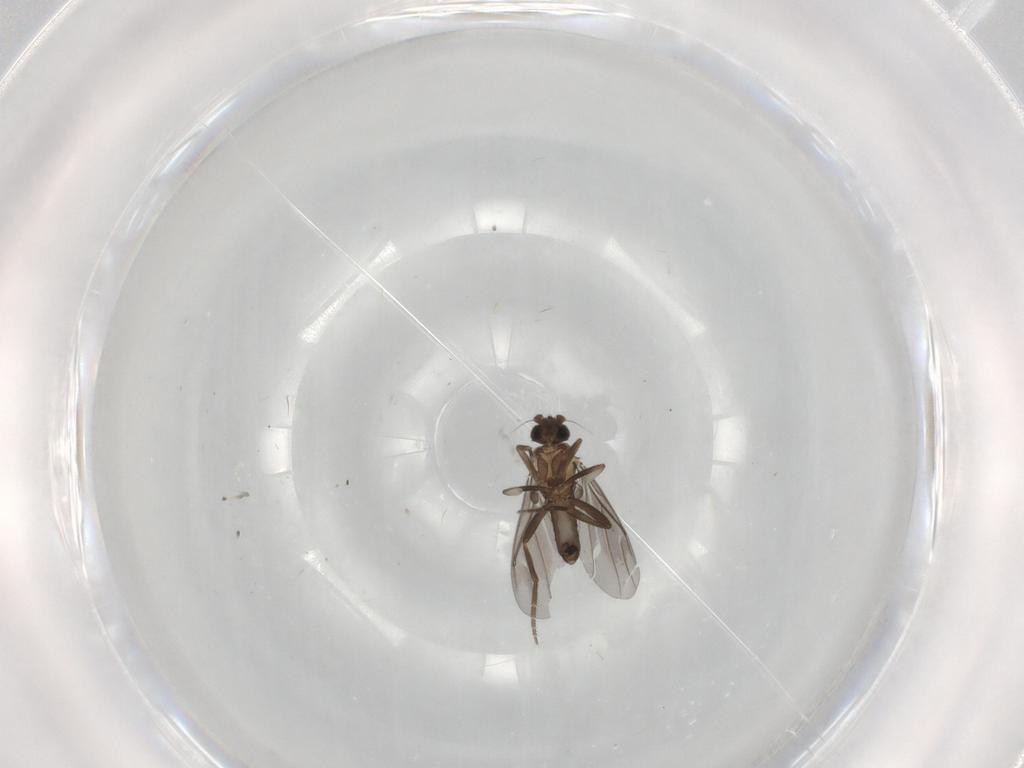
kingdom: Animalia
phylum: Arthropoda
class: Insecta
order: Diptera
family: Phoridae
